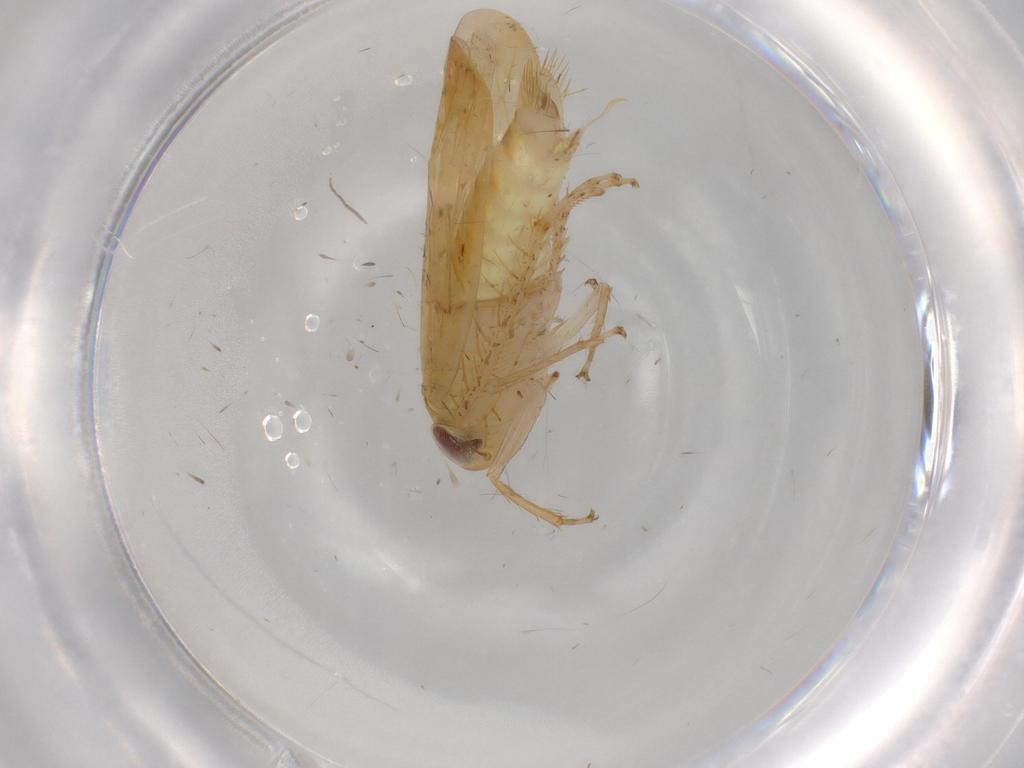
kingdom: Animalia
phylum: Arthropoda
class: Insecta
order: Hemiptera
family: Cicadellidae
